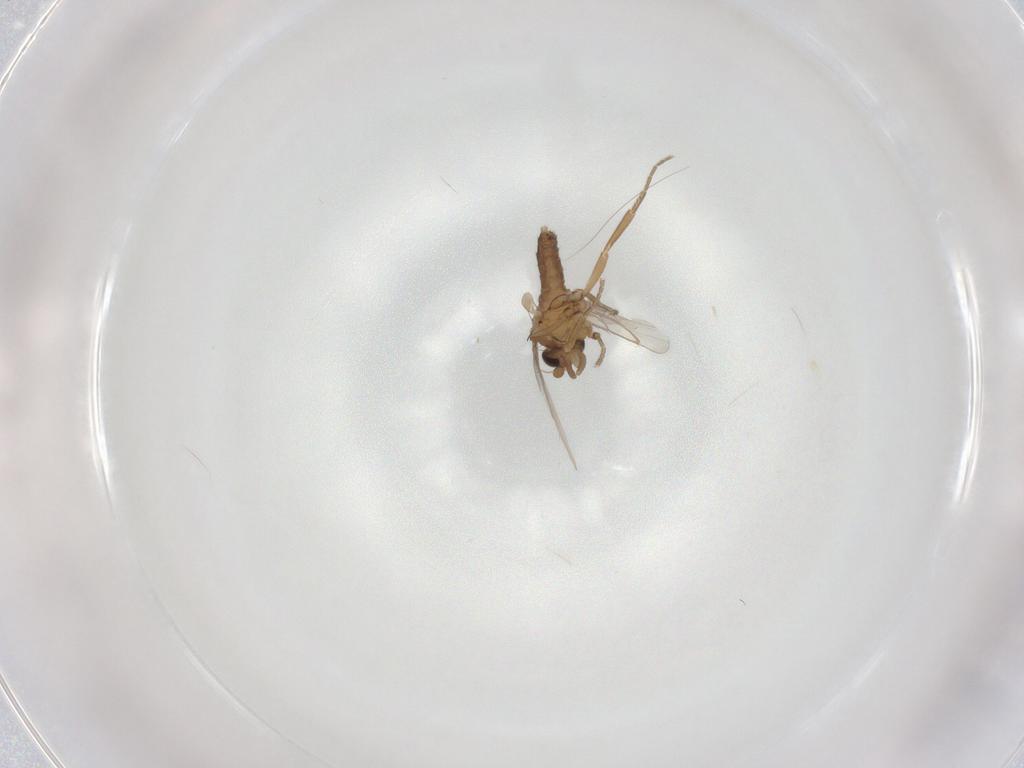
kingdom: Animalia
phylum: Arthropoda
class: Insecta
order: Diptera
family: Phoridae
